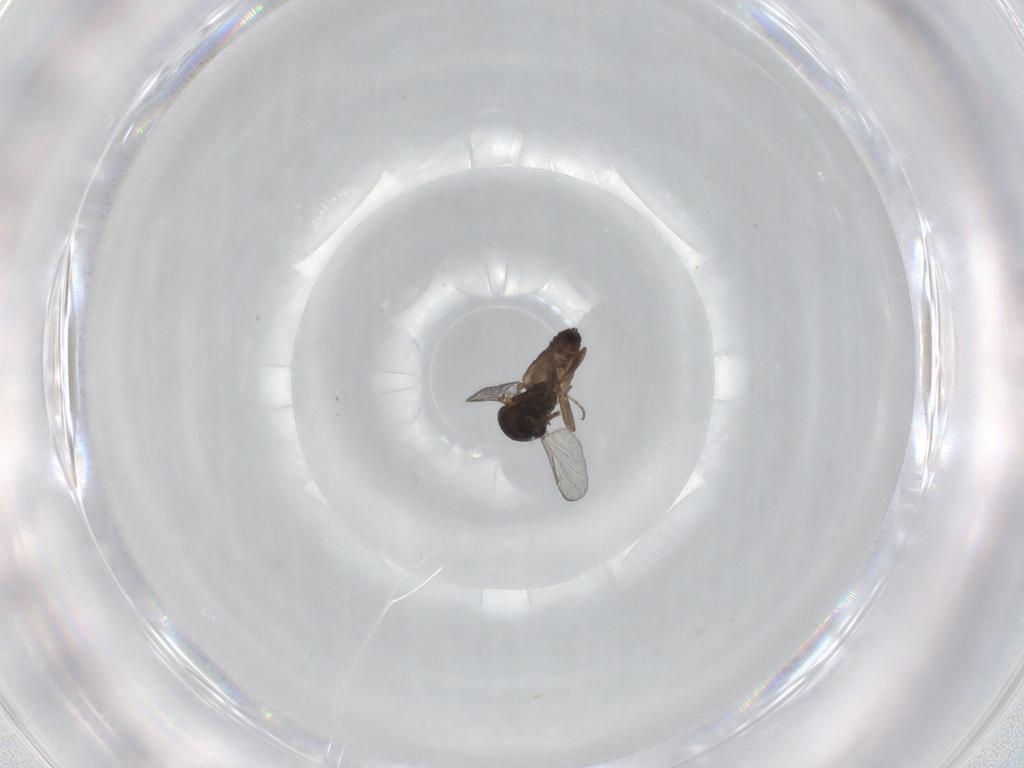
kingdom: Animalia
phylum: Arthropoda
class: Insecta
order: Diptera
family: Ceratopogonidae
